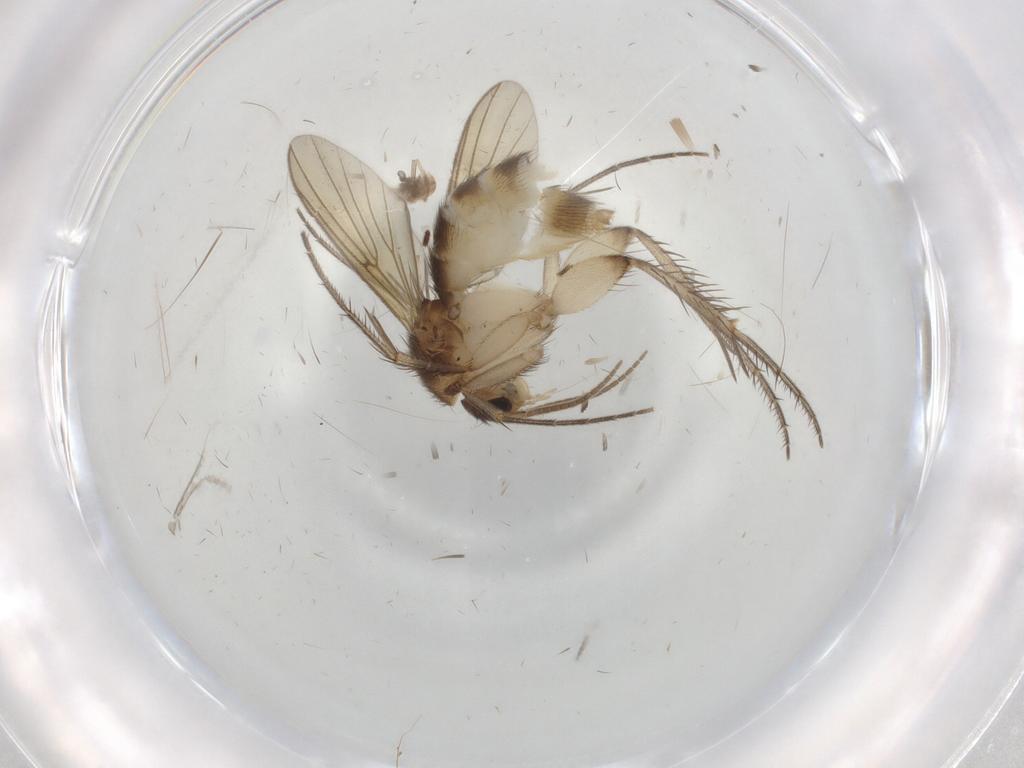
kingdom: Animalia
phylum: Arthropoda
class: Insecta
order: Diptera
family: Mycetophilidae
